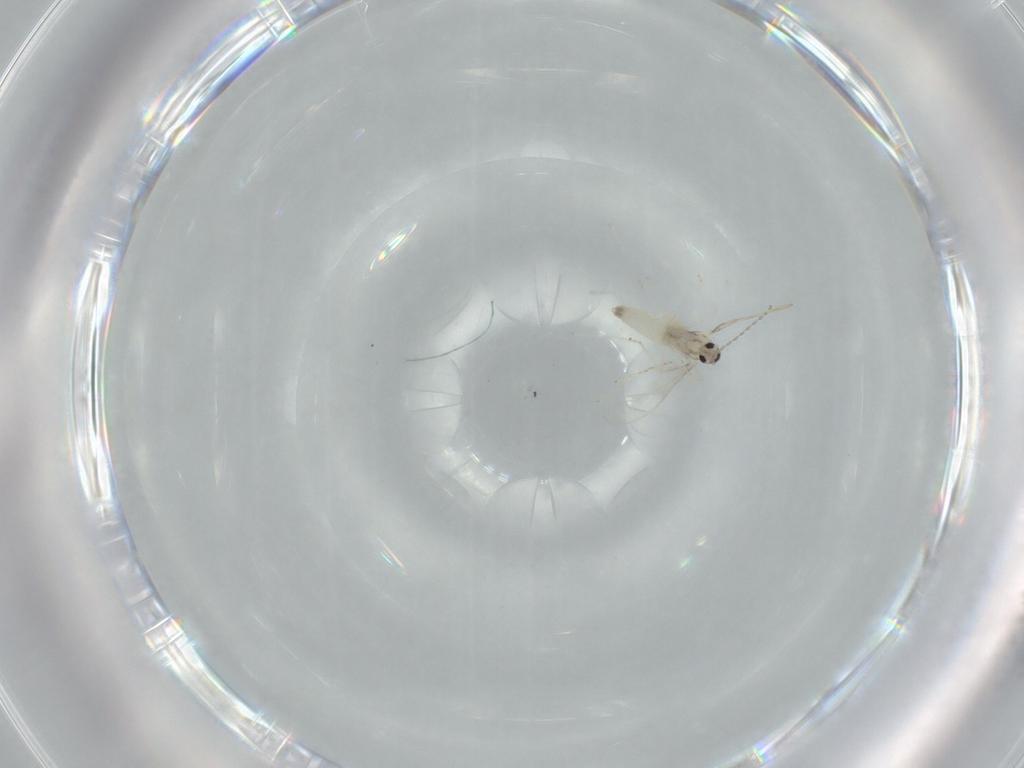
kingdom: Animalia
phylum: Arthropoda
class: Insecta
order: Diptera
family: Cecidomyiidae
